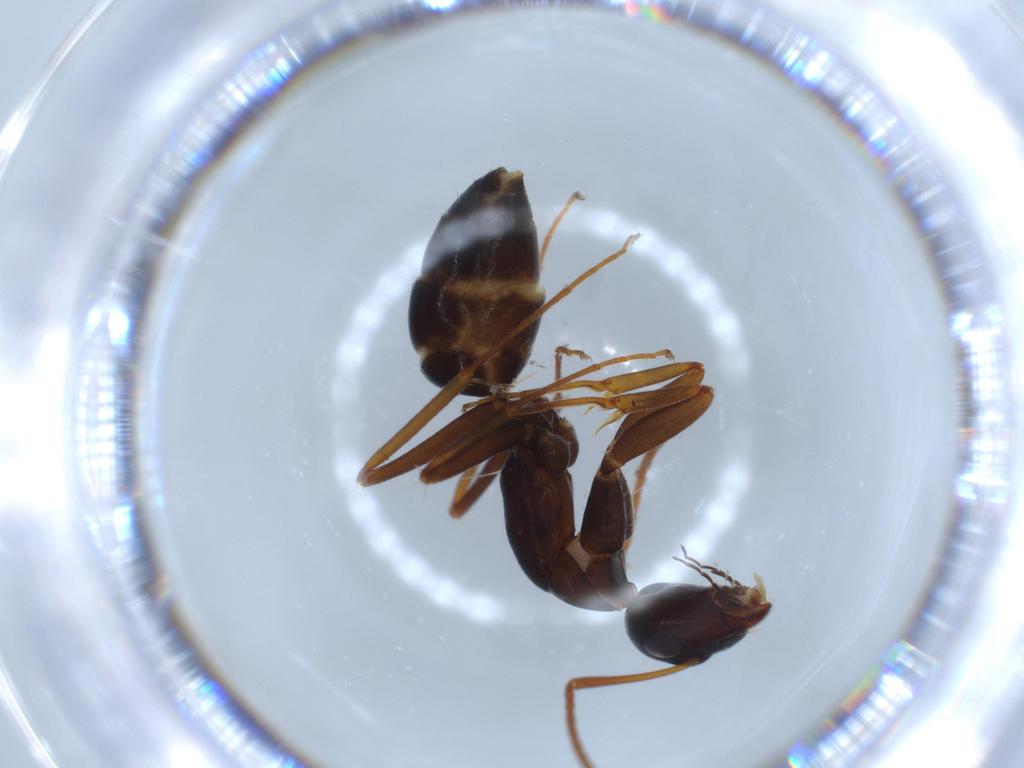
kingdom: Animalia
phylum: Arthropoda
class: Insecta
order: Hymenoptera
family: Formicidae
